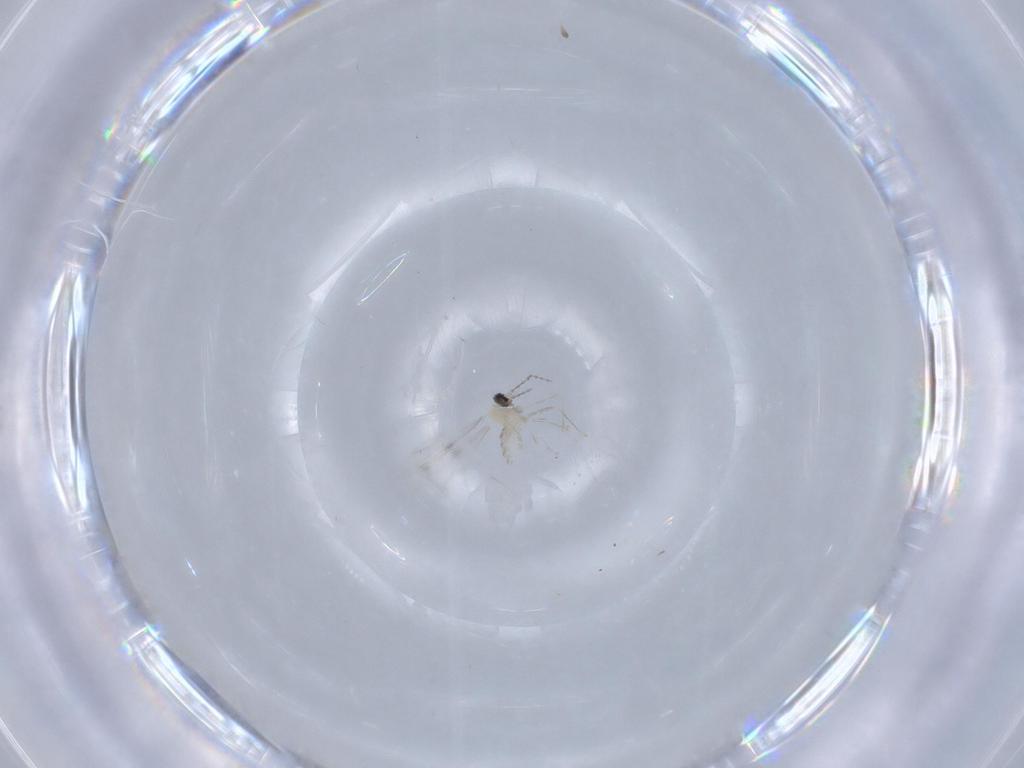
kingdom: Animalia
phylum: Arthropoda
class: Insecta
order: Diptera
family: Cecidomyiidae
